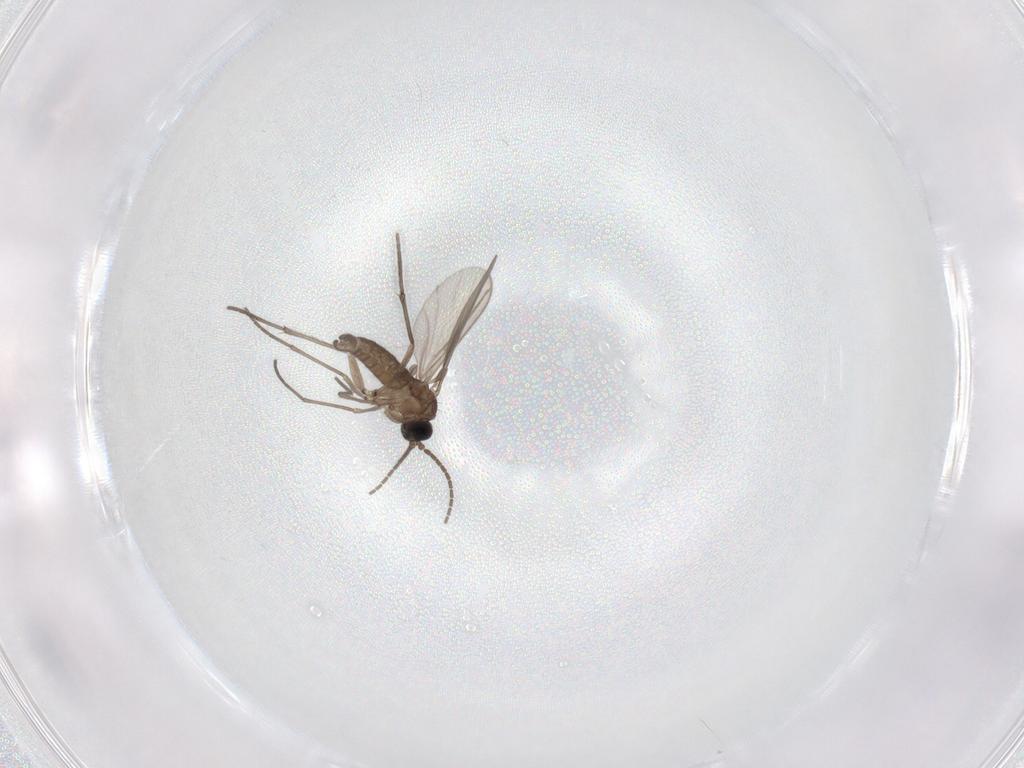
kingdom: Animalia
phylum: Arthropoda
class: Insecta
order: Diptera
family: Sciaridae
